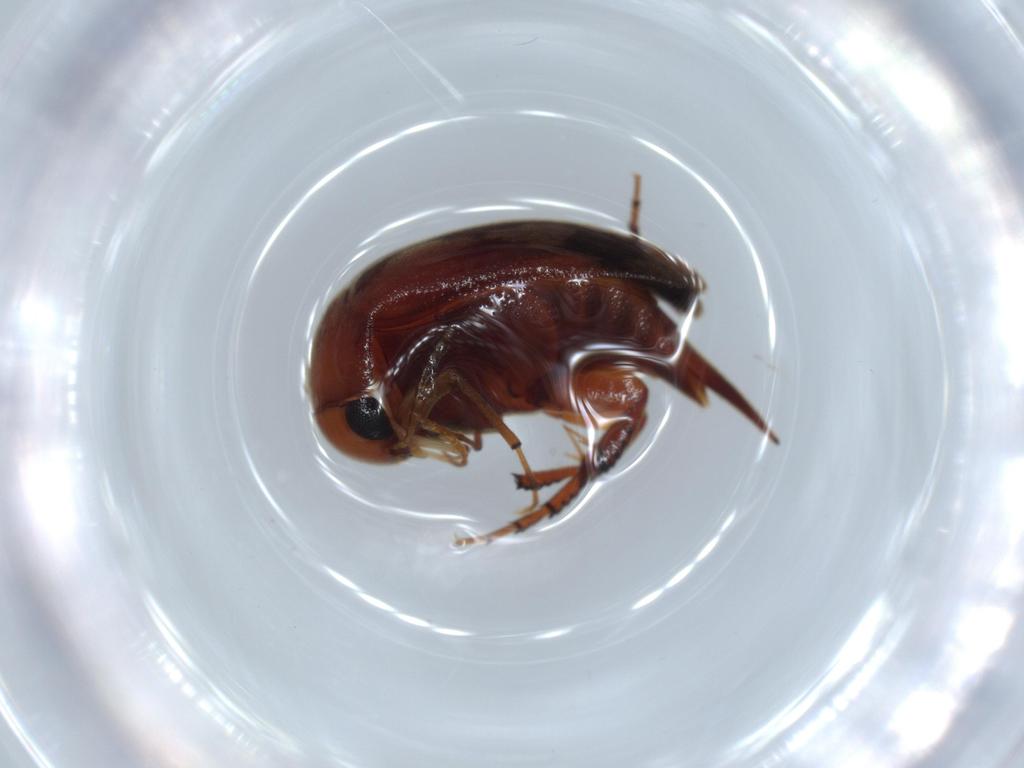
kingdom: Animalia
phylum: Arthropoda
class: Insecta
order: Coleoptera
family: Throscidae
